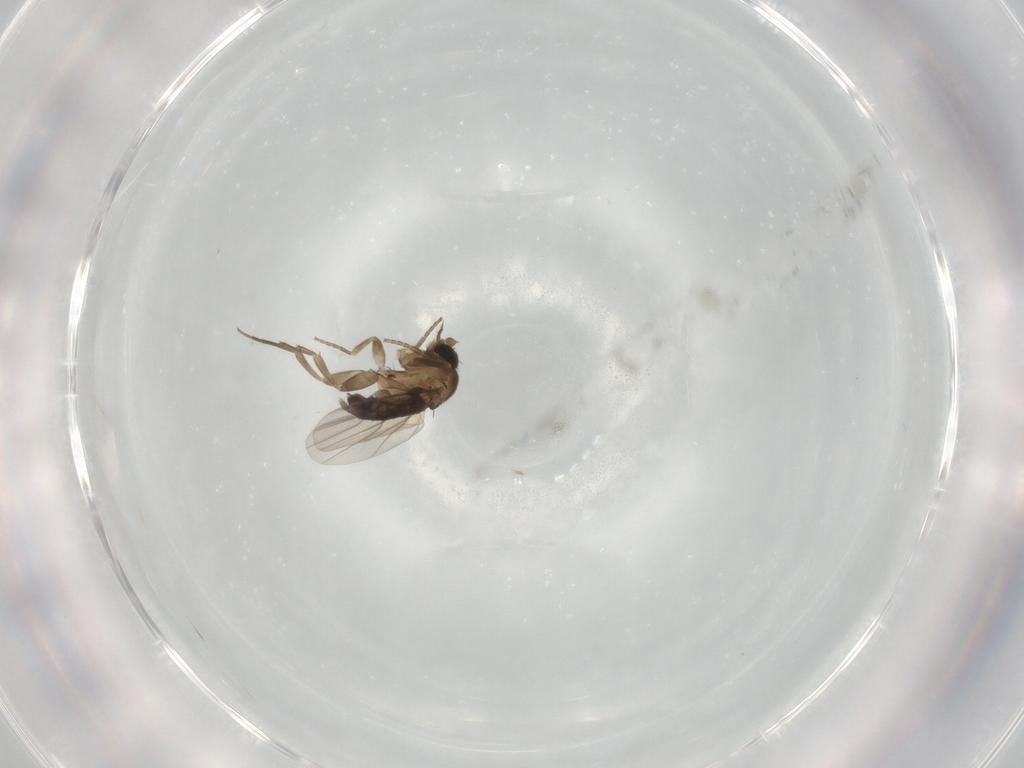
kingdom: Animalia
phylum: Arthropoda
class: Insecta
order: Diptera
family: Phoridae
